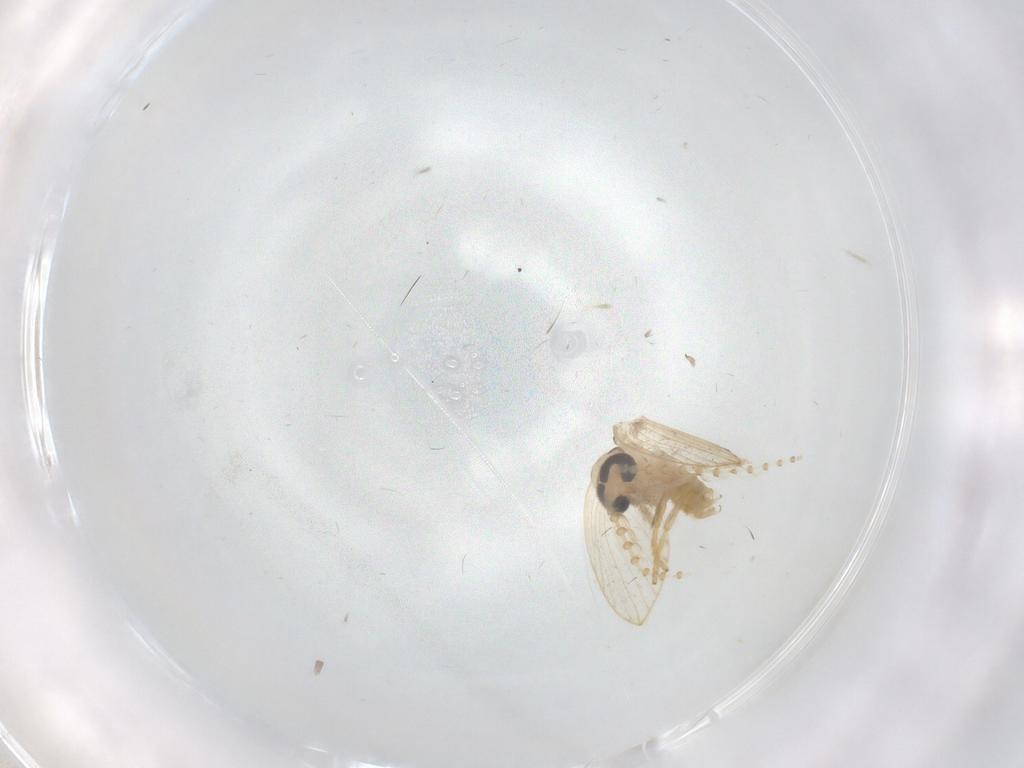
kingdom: Animalia
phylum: Arthropoda
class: Insecta
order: Diptera
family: Psychodidae
